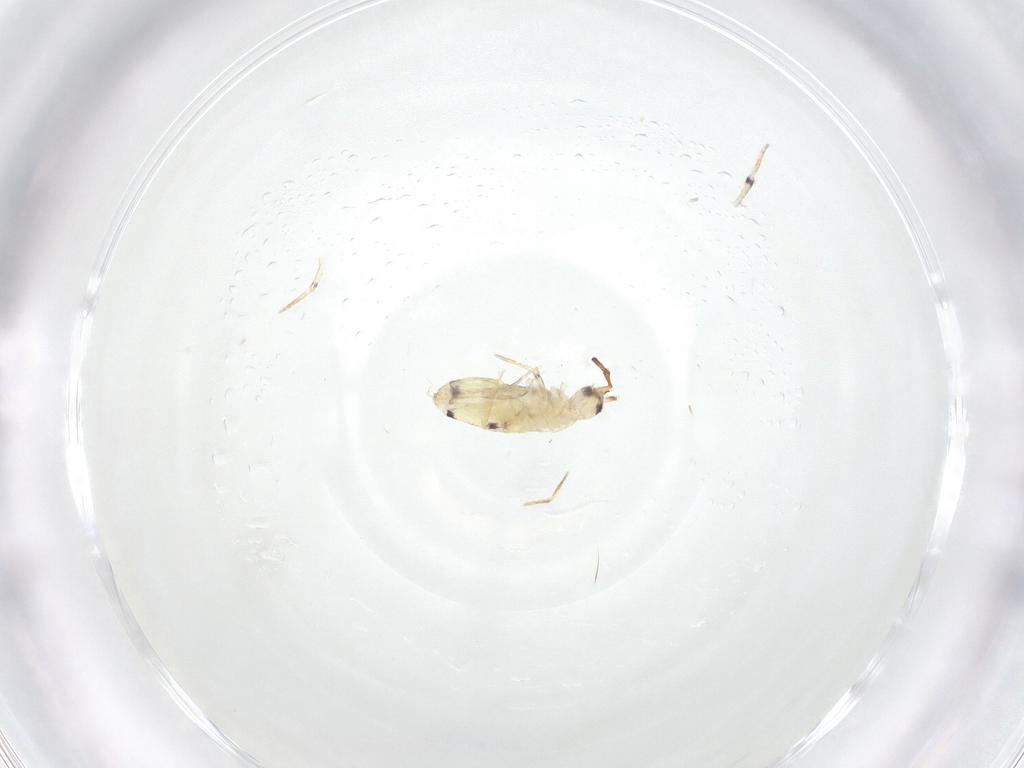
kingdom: Animalia
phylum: Arthropoda
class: Collembola
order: Entomobryomorpha
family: Entomobryidae
